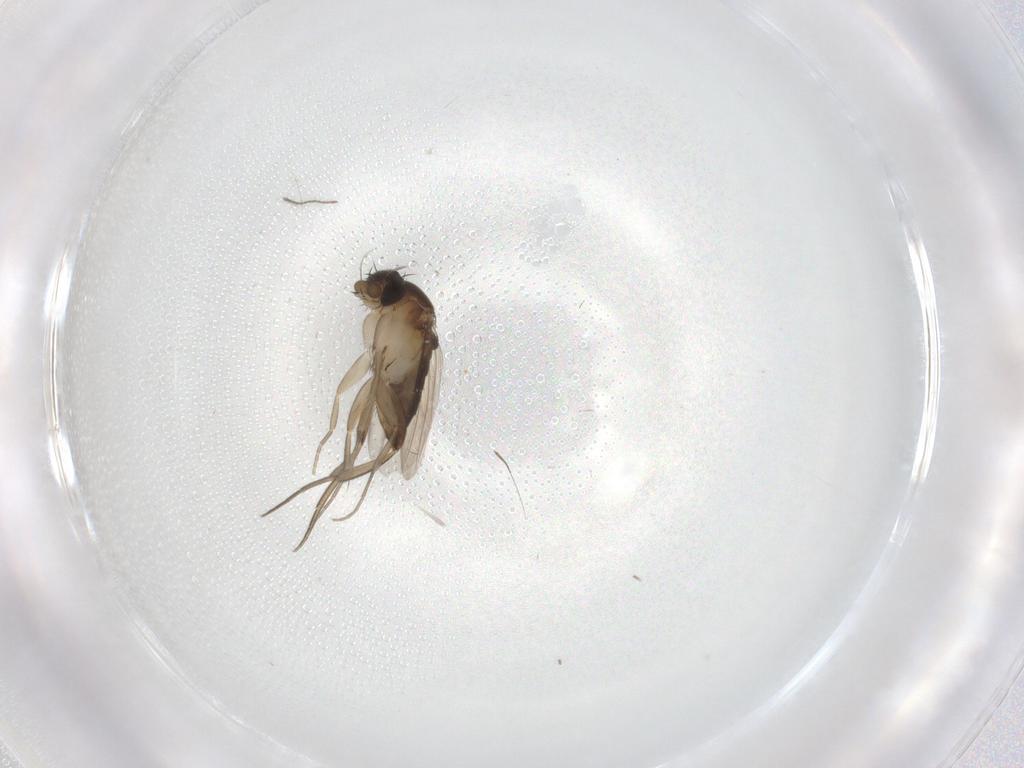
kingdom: Animalia
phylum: Arthropoda
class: Insecta
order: Diptera
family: Phoridae
